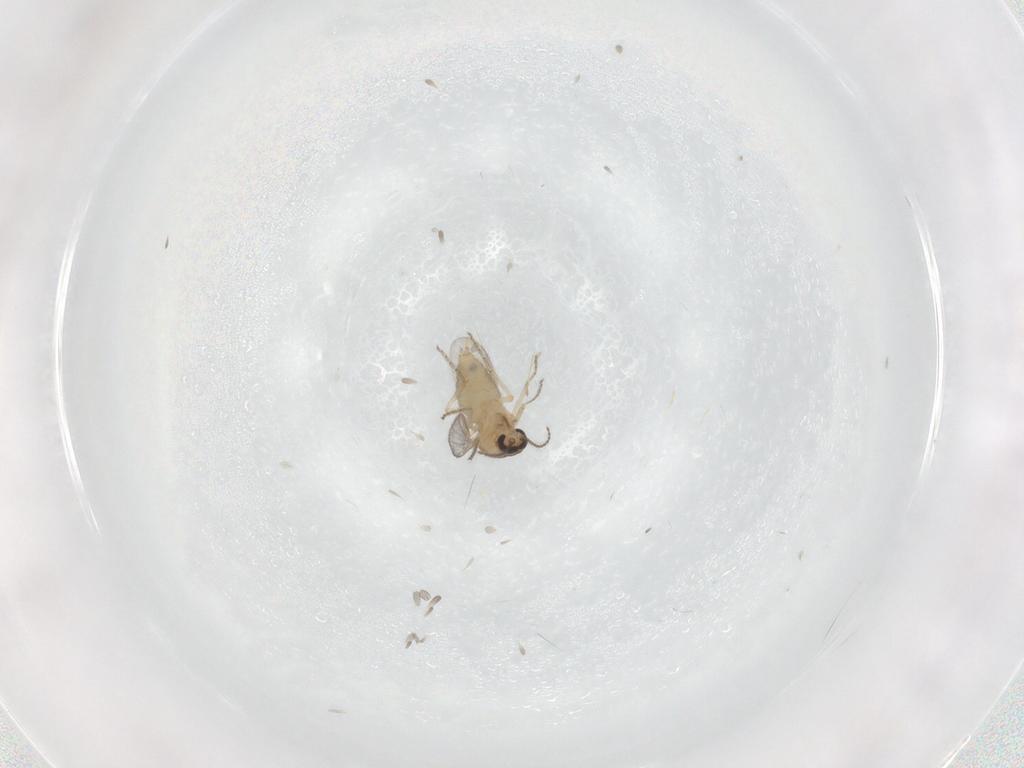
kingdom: Animalia
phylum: Arthropoda
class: Insecta
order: Diptera
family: Ceratopogonidae
